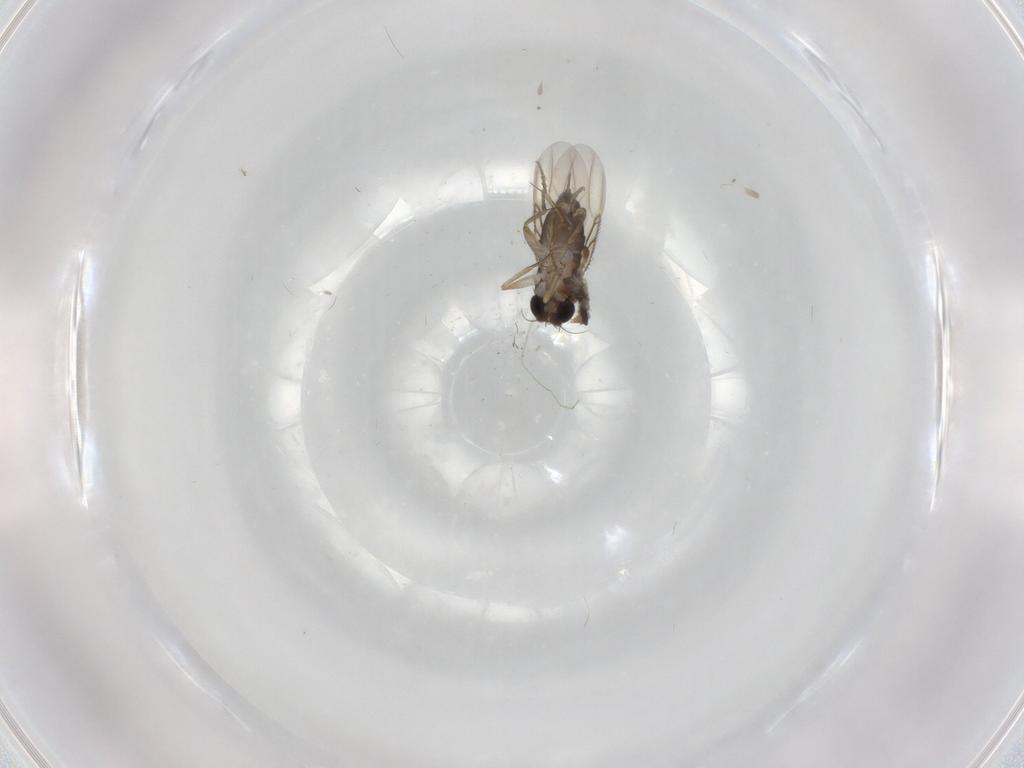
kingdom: Animalia
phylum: Arthropoda
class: Insecta
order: Diptera
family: Phoridae
